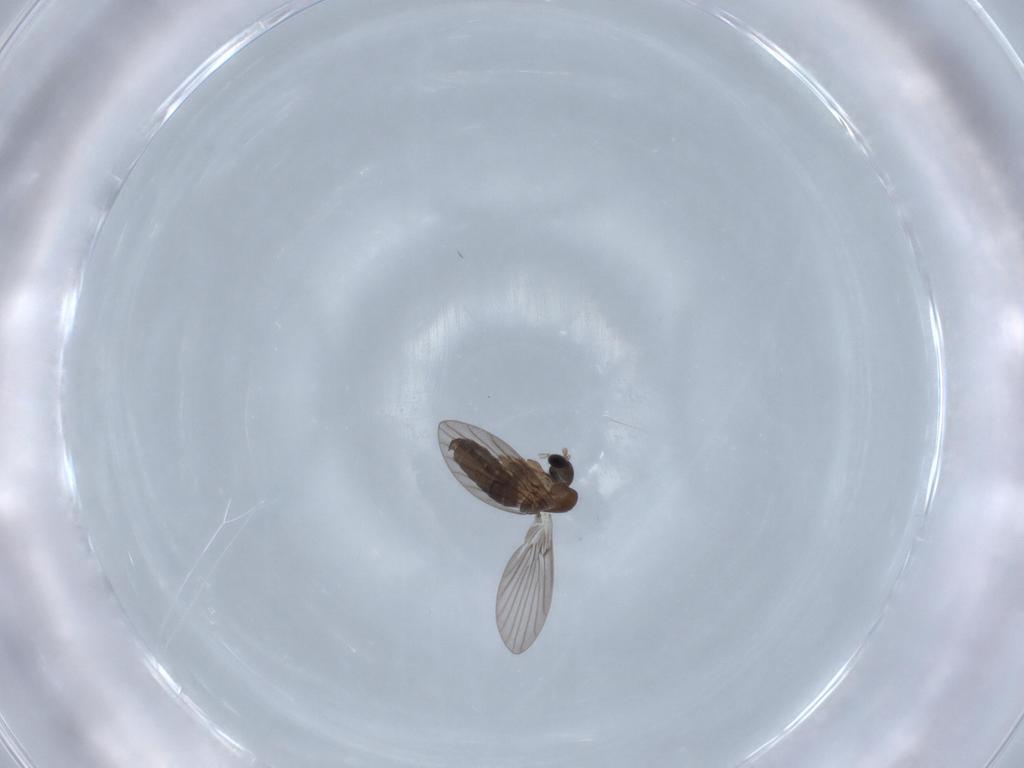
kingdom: Animalia
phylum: Arthropoda
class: Insecta
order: Diptera
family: Psychodidae
